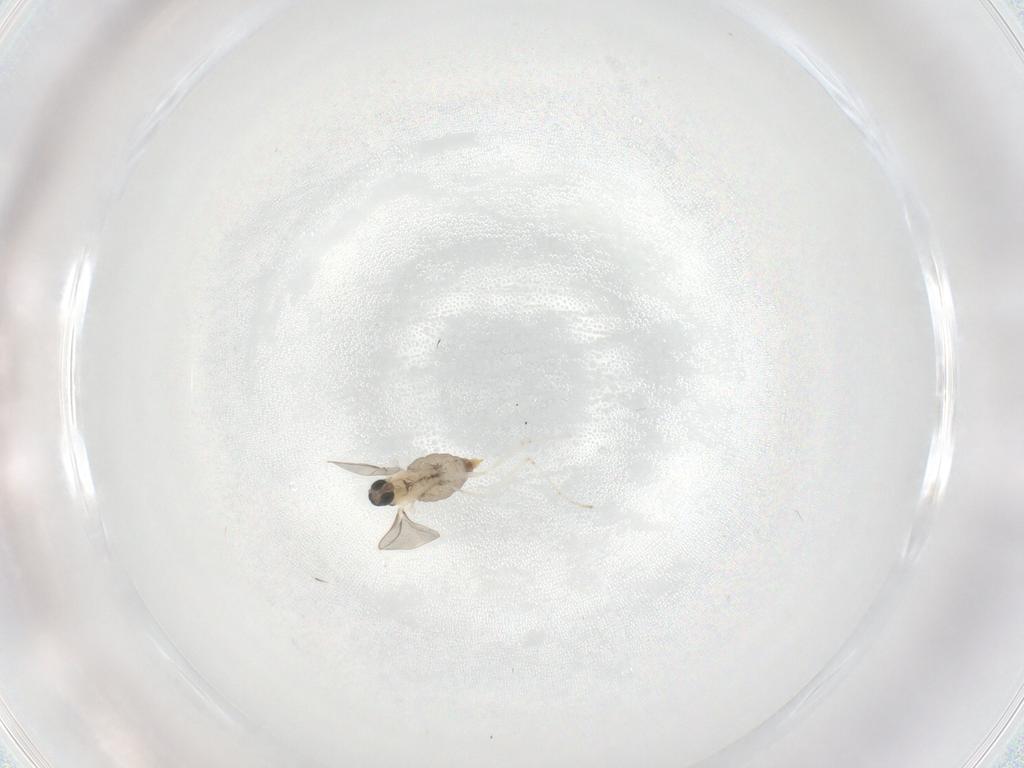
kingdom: Animalia
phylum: Arthropoda
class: Insecta
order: Diptera
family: Cecidomyiidae
